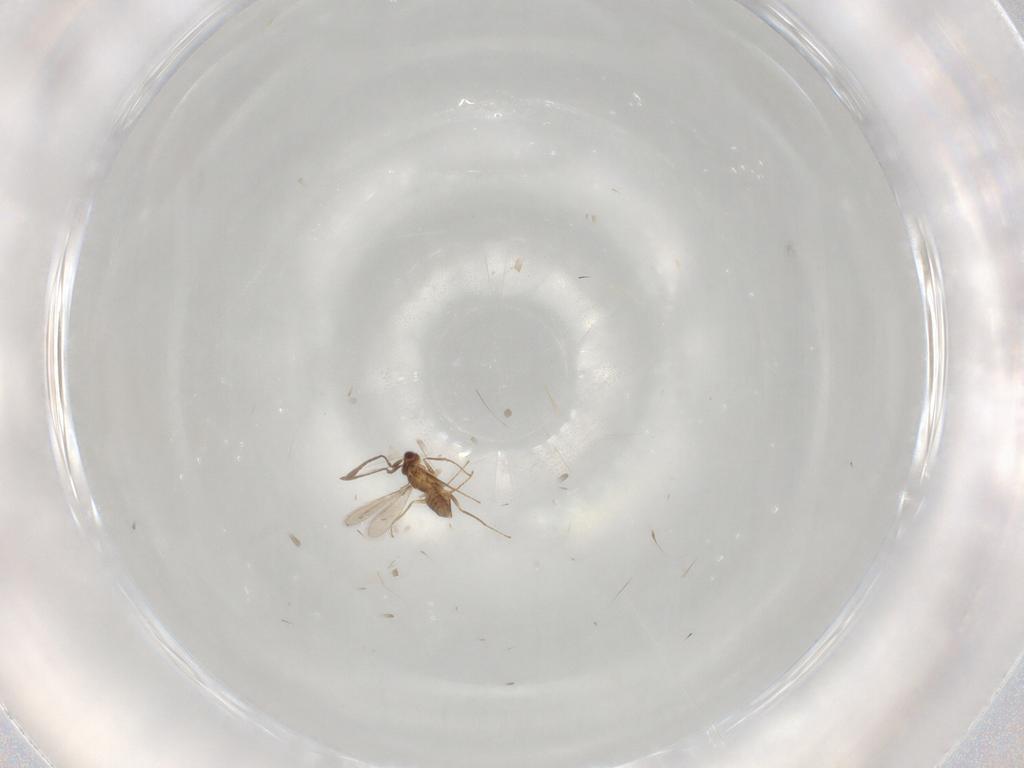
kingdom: Animalia
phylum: Arthropoda
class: Insecta
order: Hymenoptera
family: Mymaridae
